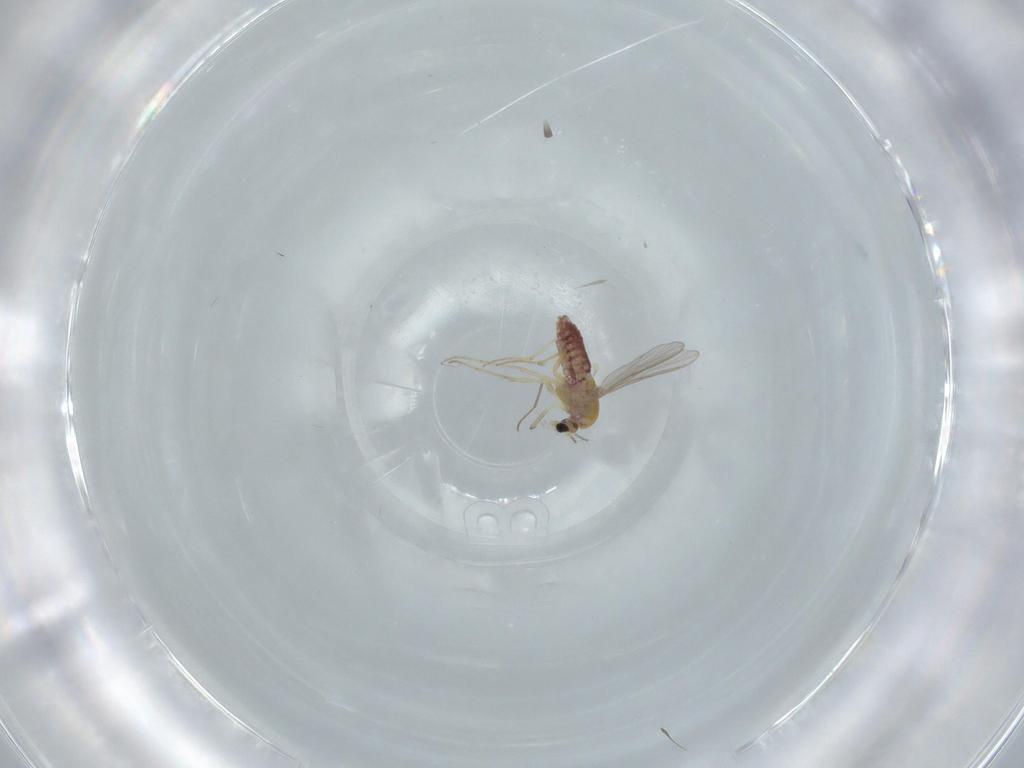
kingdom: Animalia
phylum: Arthropoda
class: Insecta
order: Diptera
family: Chironomidae
